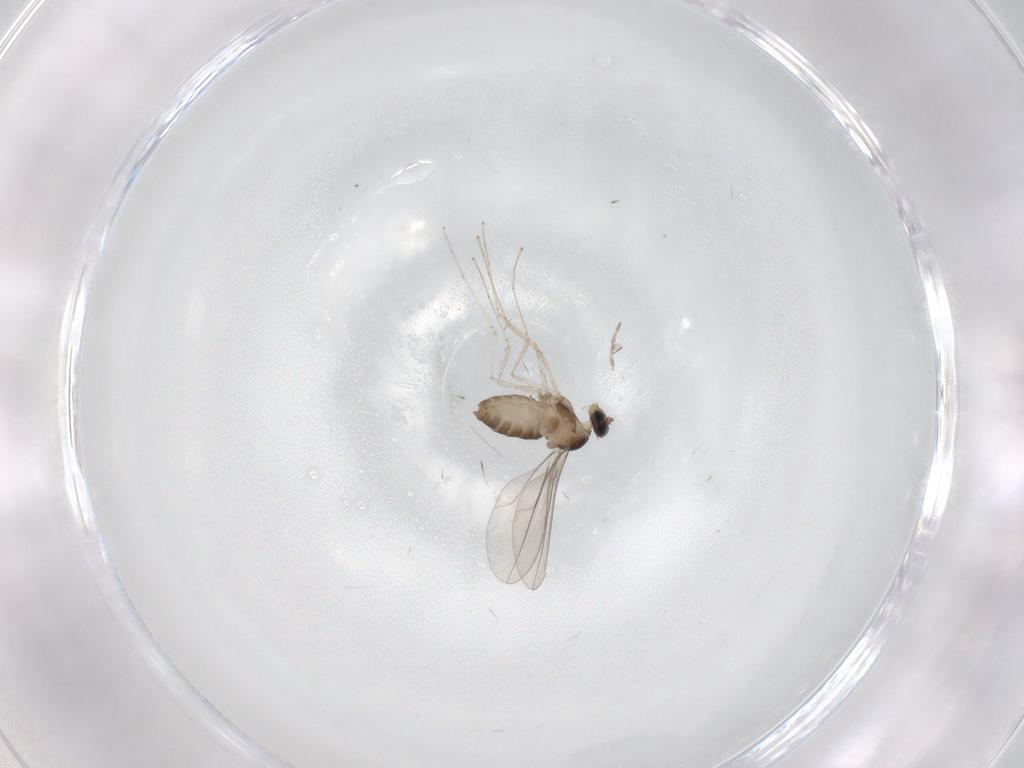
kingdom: Animalia
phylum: Arthropoda
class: Insecta
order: Diptera
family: Cecidomyiidae
